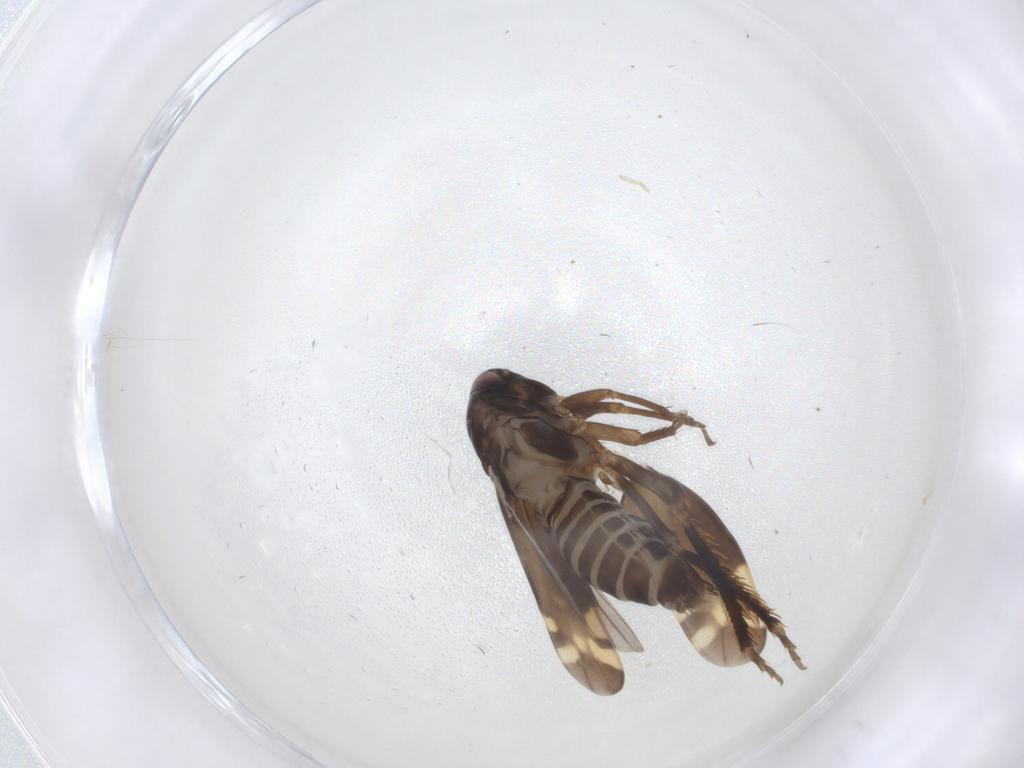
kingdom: Animalia
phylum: Arthropoda
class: Insecta
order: Hemiptera
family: Cicadellidae
